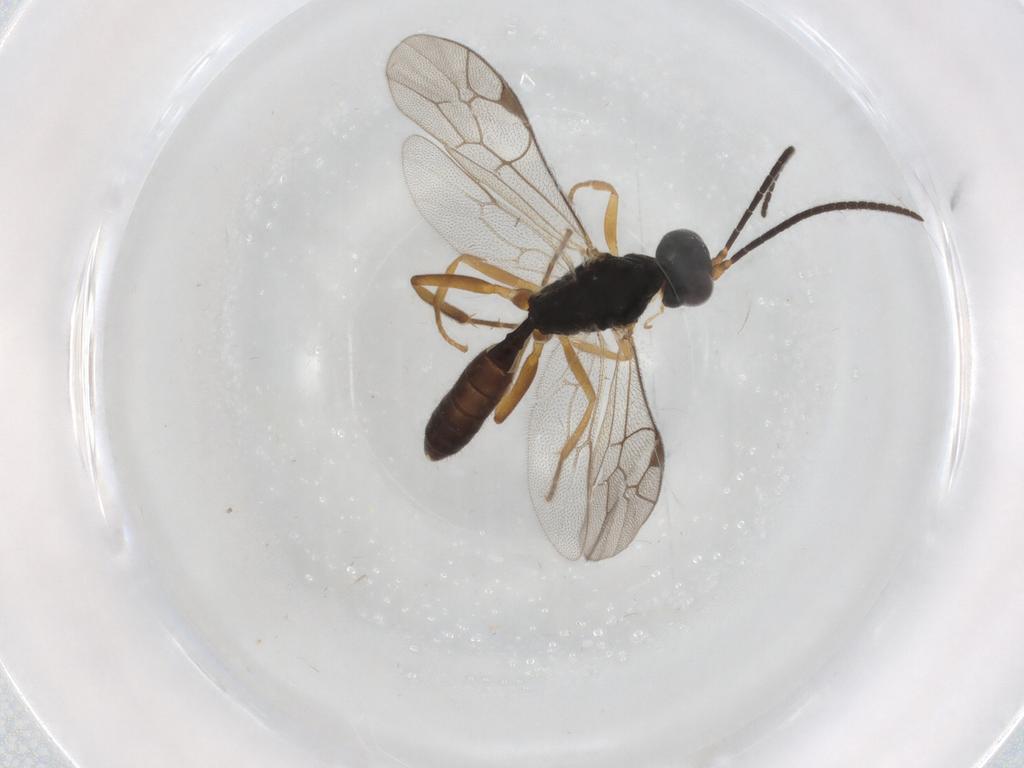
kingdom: Animalia
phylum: Arthropoda
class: Insecta
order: Hymenoptera
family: Ichneumonidae
